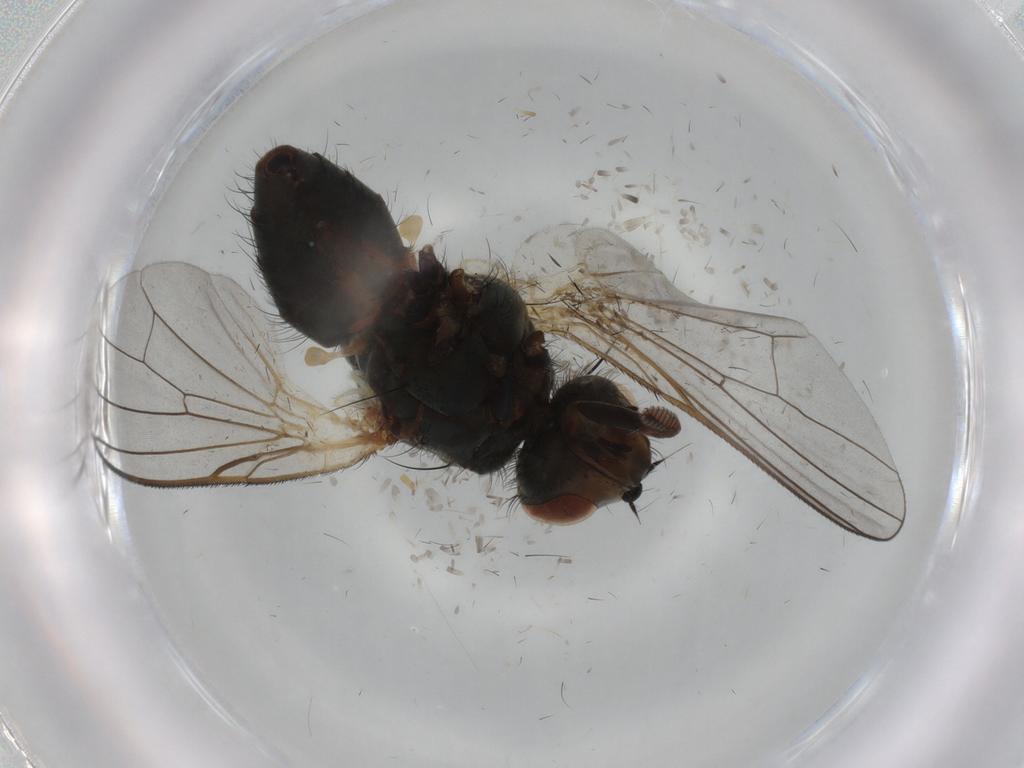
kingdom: Animalia
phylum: Arthropoda
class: Insecta
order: Diptera
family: Anthomyiidae
